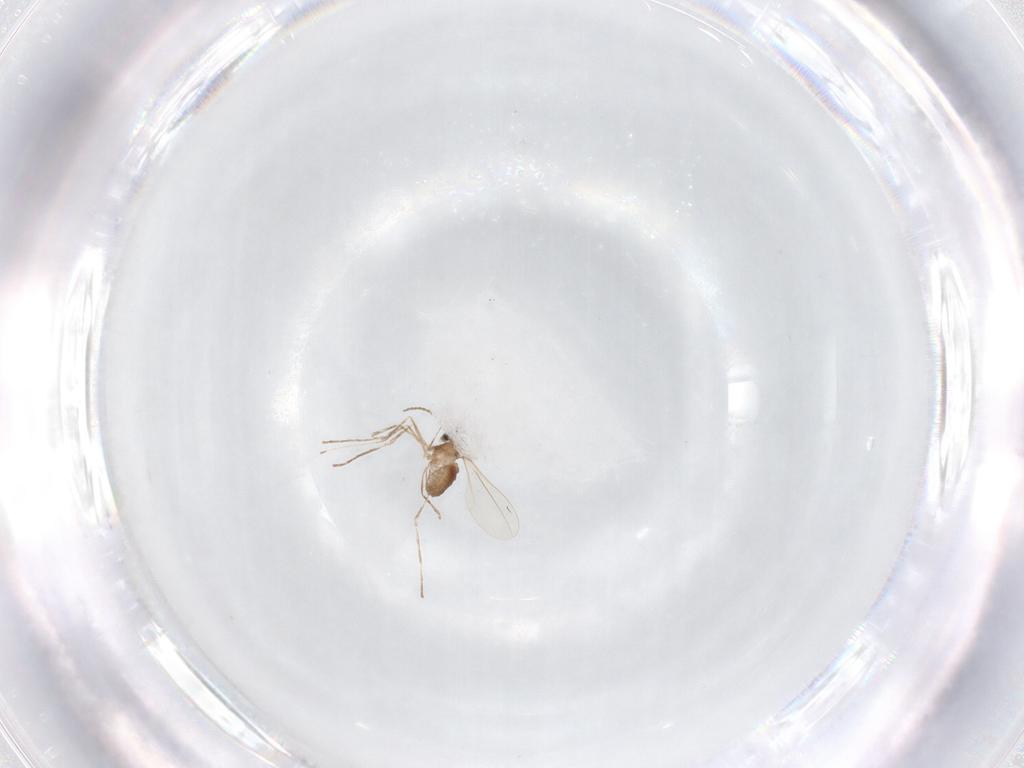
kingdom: Animalia
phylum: Arthropoda
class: Insecta
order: Diptera
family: Cecidomyiidae
